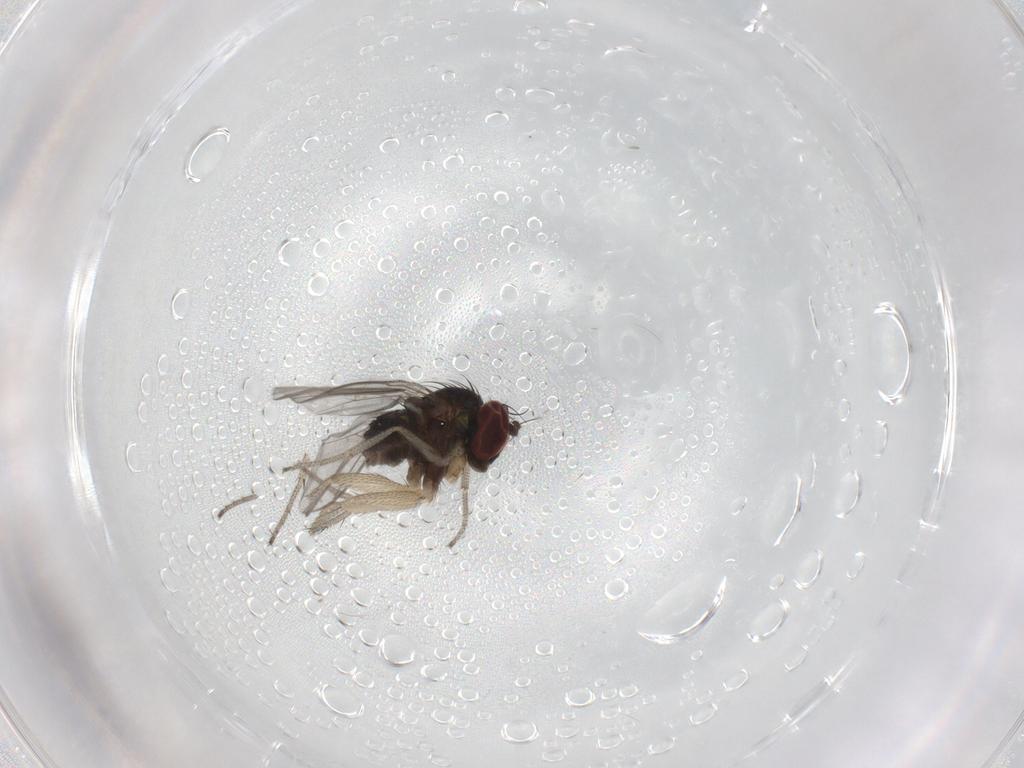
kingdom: Animalia
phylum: Arthropoda
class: Insecta
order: Diptera
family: Dolichopodidae
